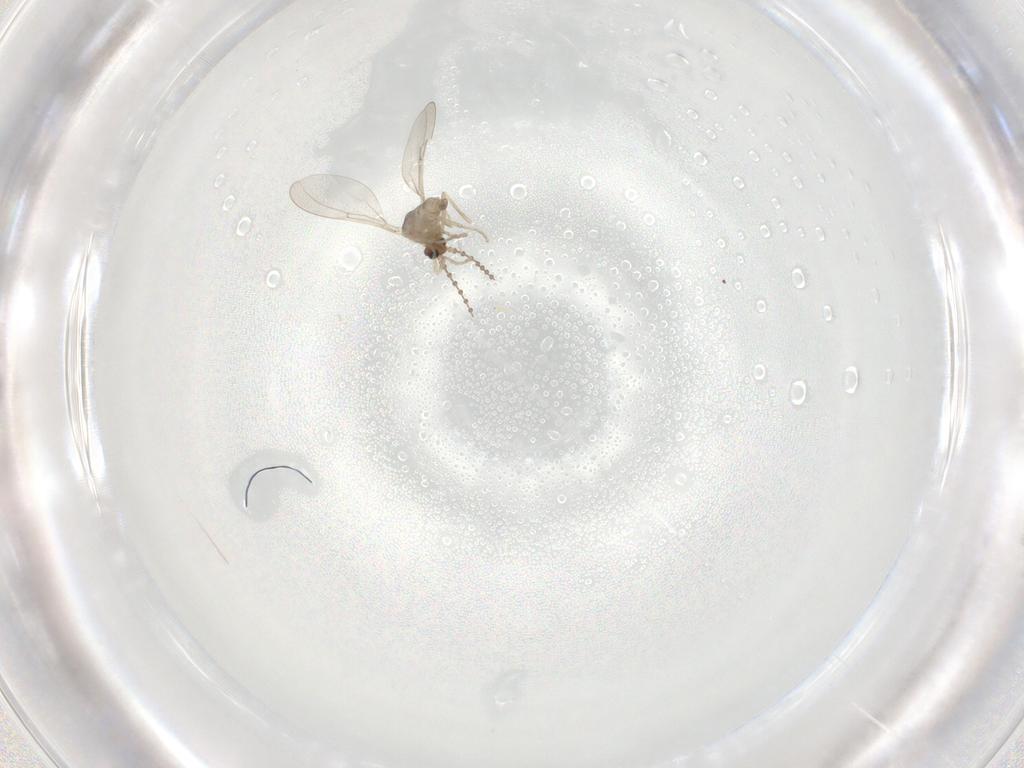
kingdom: Animalia
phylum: Arthropoda
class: Insecta
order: Diptera
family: Cecidomyiidae
